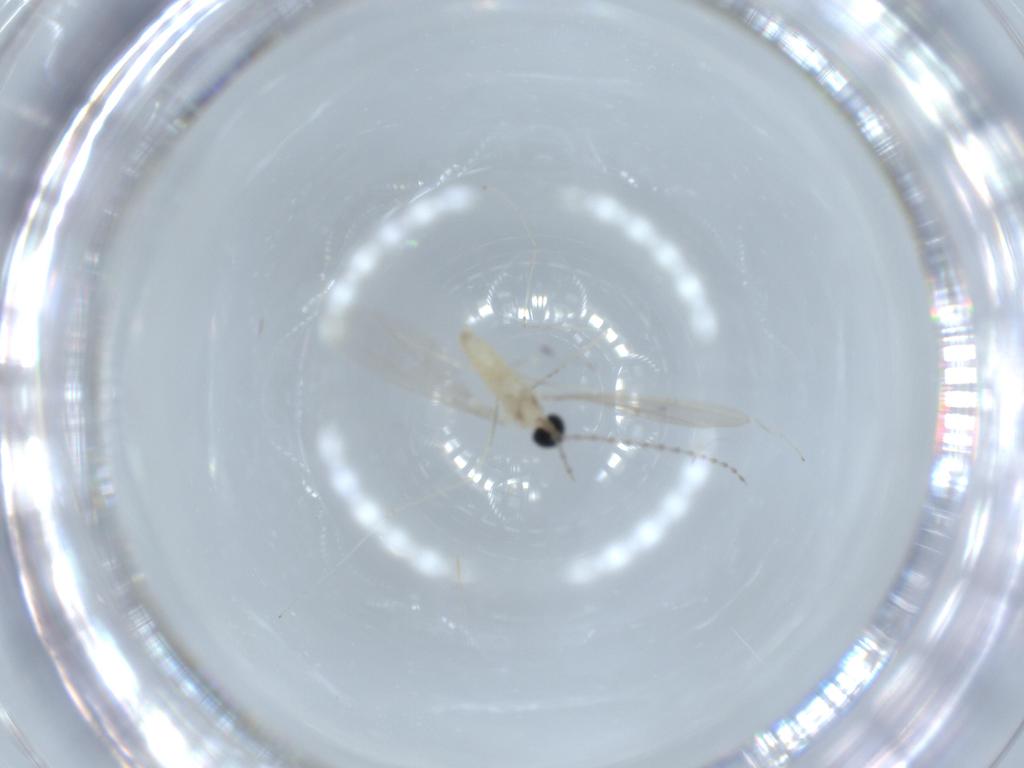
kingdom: Animalia
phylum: Arthropoda
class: Insecta
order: Diptera
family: Cecidomyiidae
